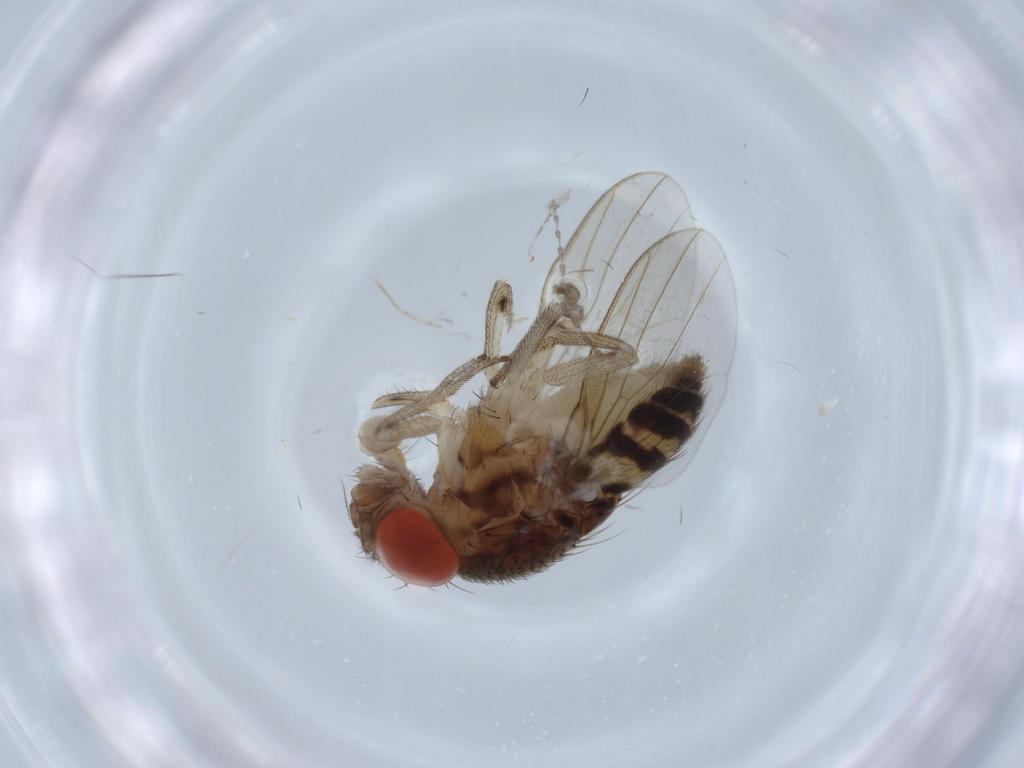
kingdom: Animalia
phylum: Arthropoda
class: Insecta
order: Diptera
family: Drosophilidae
